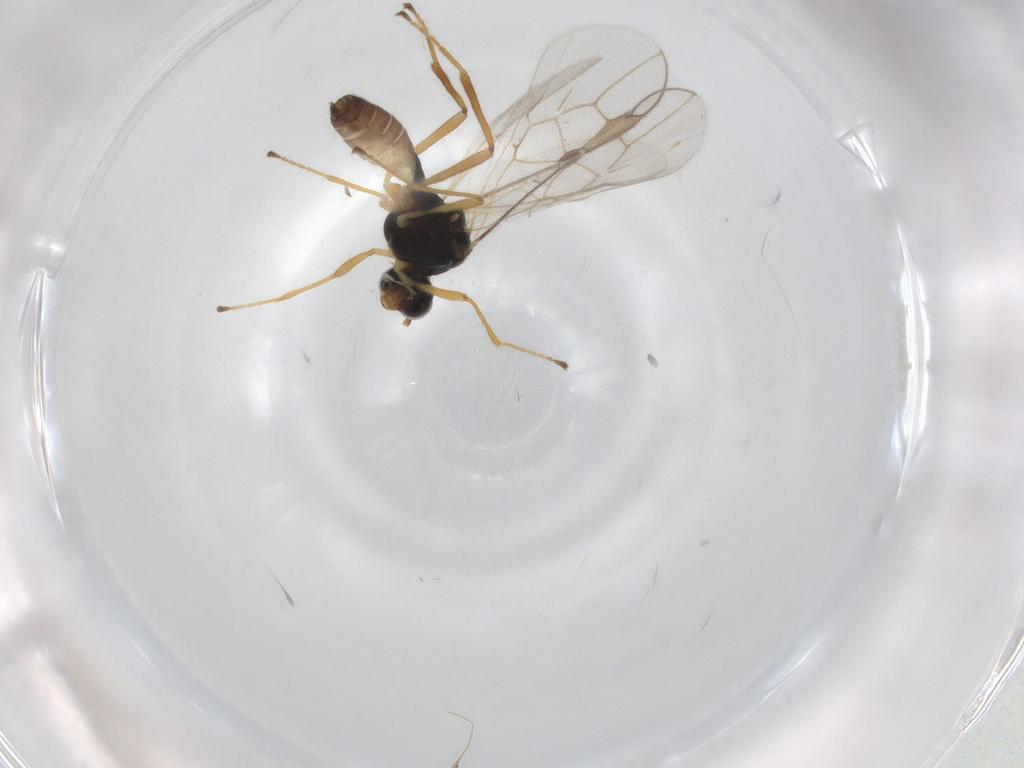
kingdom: Animalia
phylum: Arthropoda
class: Insecta
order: Hymenoptera
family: Braconidae
